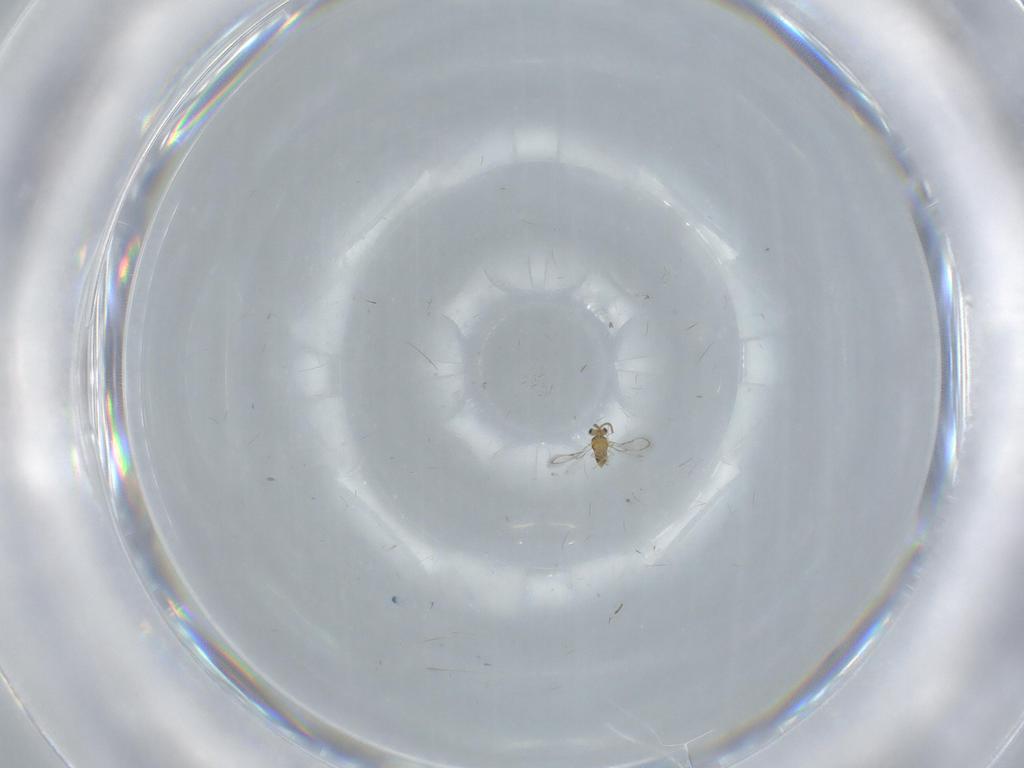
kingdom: Animalia
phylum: Arthropoda
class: Insecta
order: Hymenoptera
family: Aphelinidae
